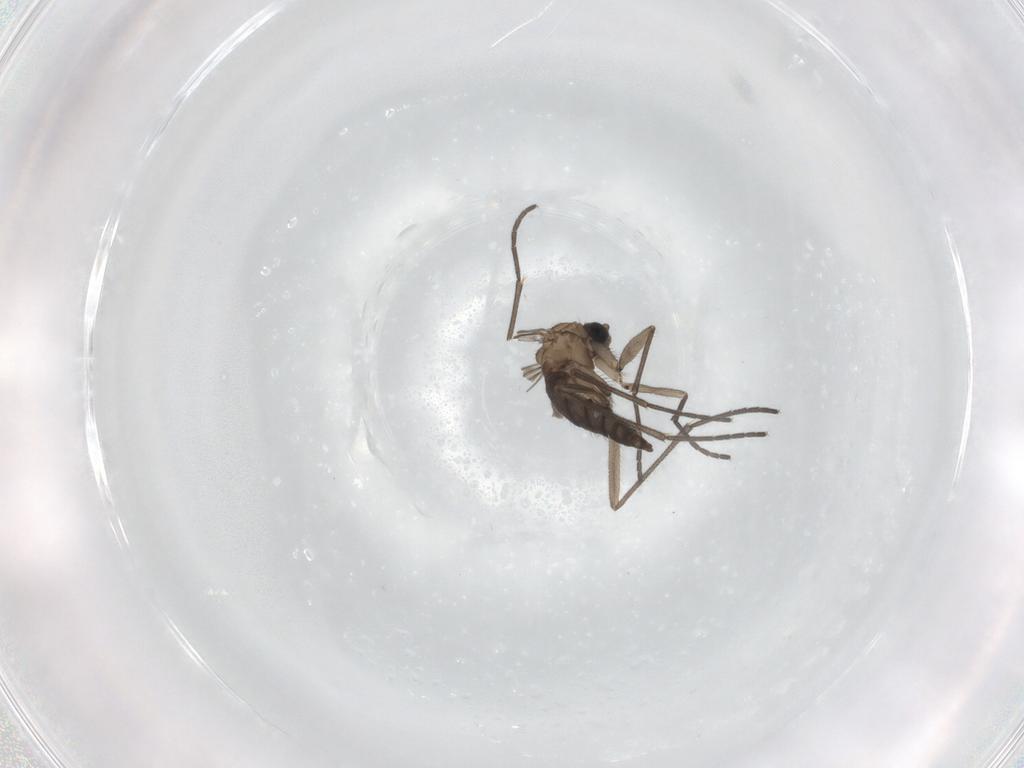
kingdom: Animalia
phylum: Arthropoda
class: Insecta
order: Diptera
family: Sciaridae
